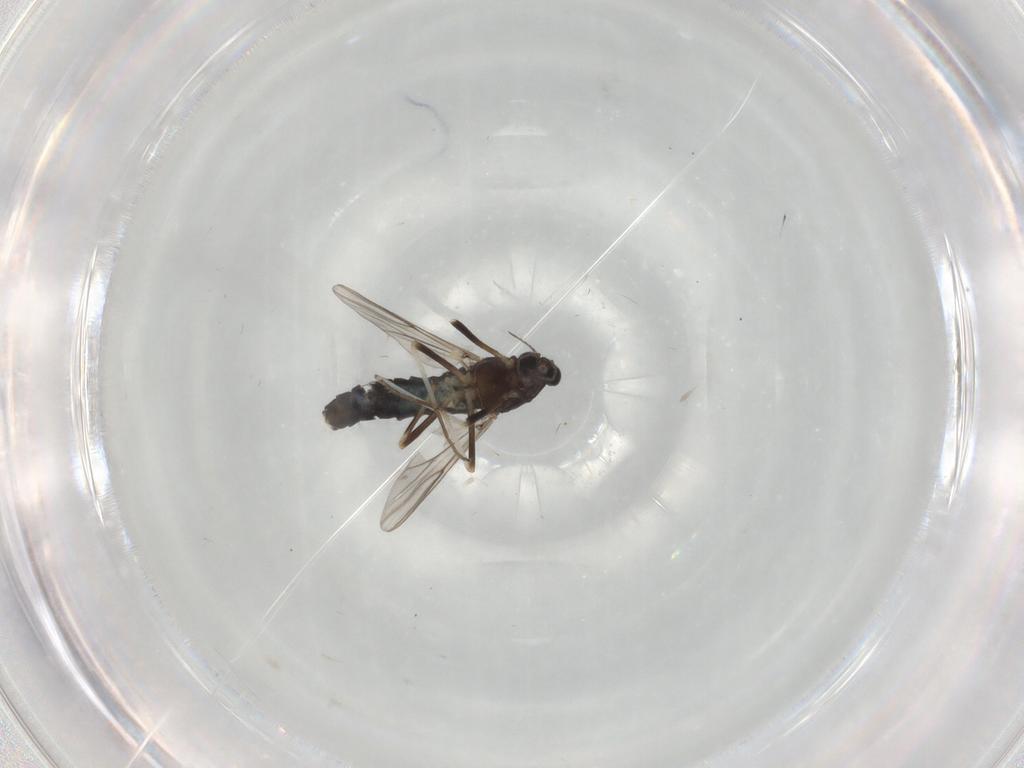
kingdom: Animalia
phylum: Arthropoda
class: Insecta
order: Diptera
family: Chironomidae
